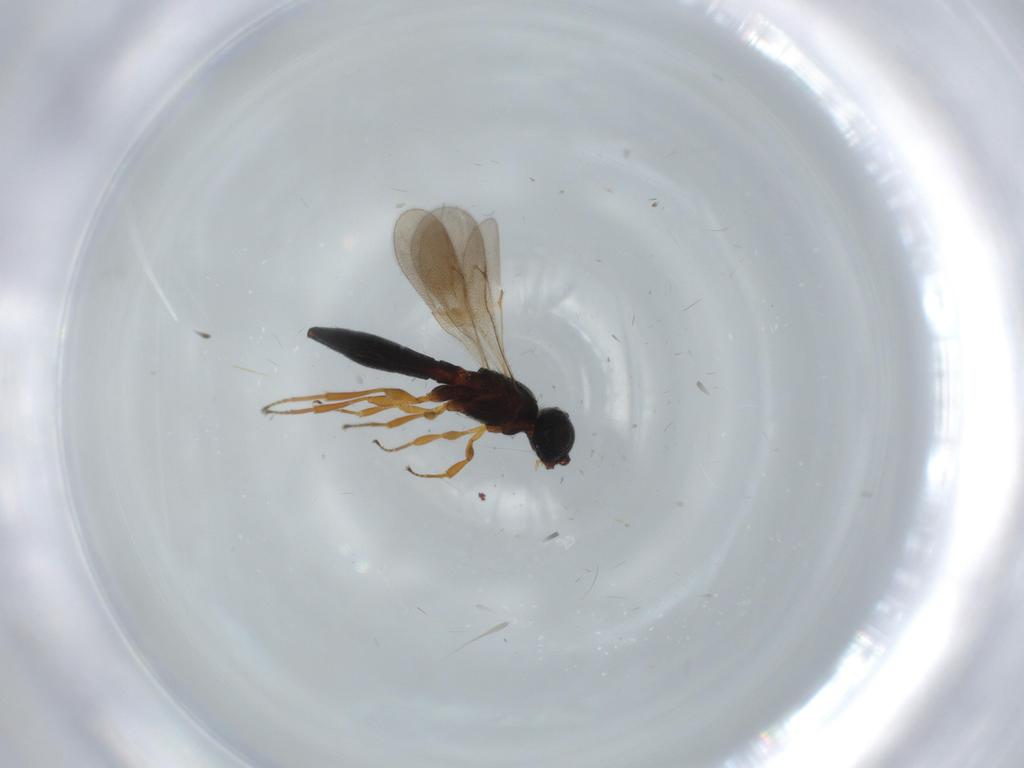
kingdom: Animalia
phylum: Arthropoda
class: Insecta
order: Hymenoptera
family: Scelionidae
